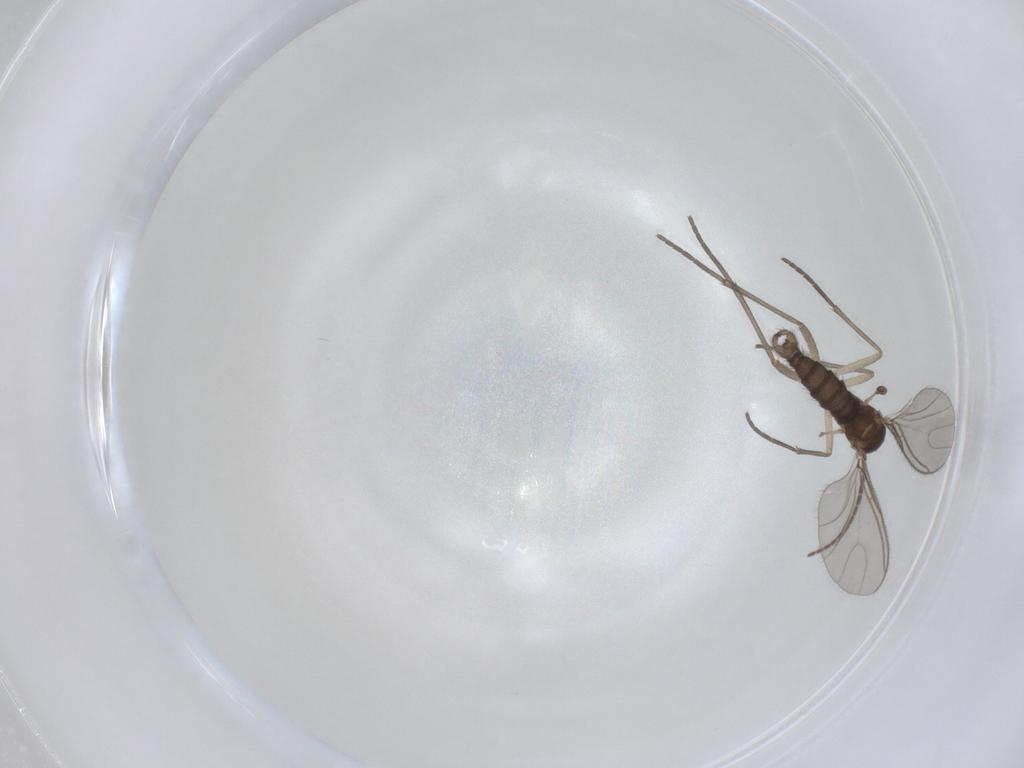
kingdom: Animalia
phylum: Arthropoda
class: Insecta
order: Diptera
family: Sciaridae
